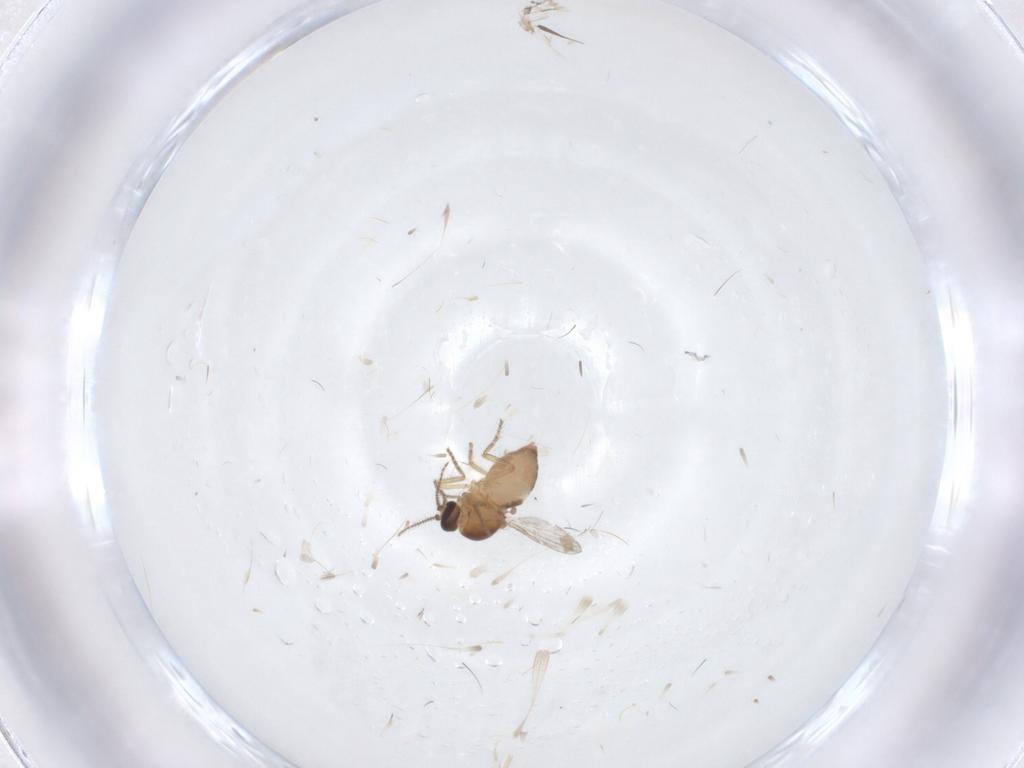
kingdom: Animalia
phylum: Arthropoda
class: Insecta
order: Diptera
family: Ceratopogonidae
